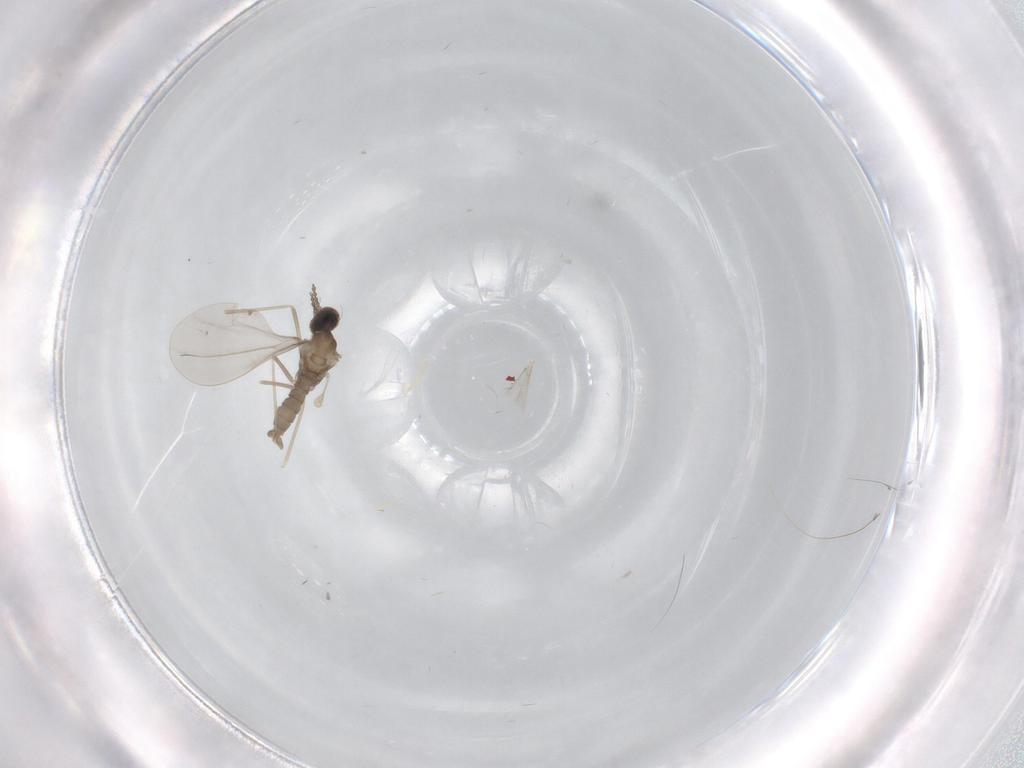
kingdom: Animalia
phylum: Arthropoda
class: Insecta
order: Diptera
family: Cecidomyiidae
